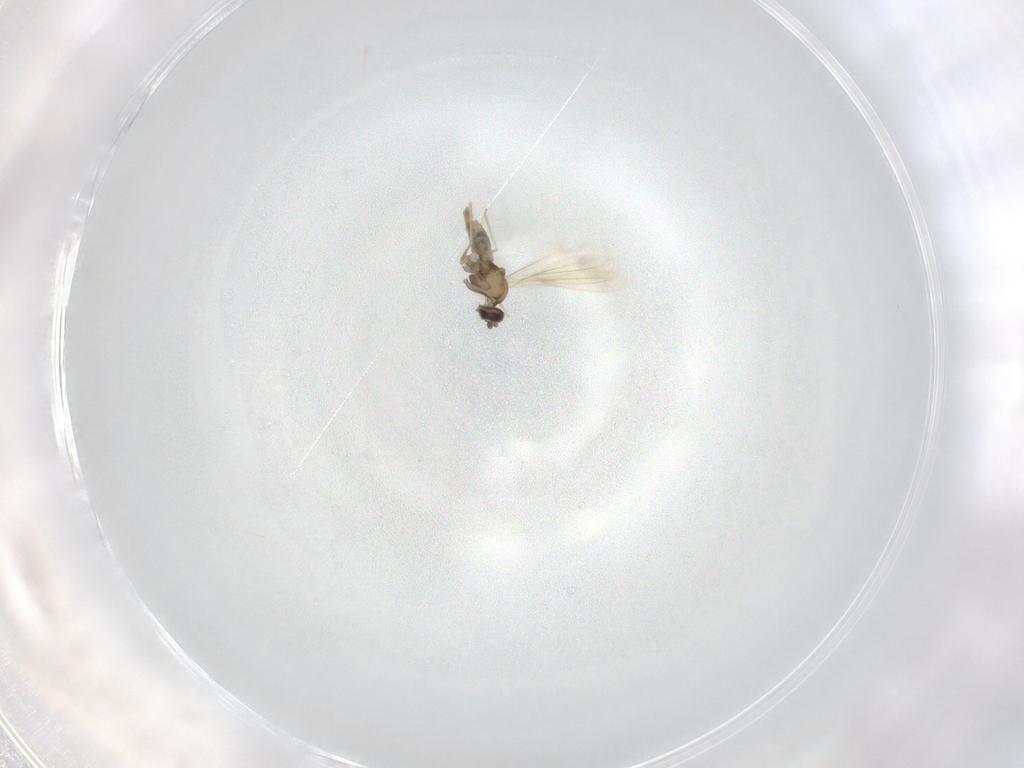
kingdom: Animalia
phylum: Arthropoda
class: Insecta
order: Diptera
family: Cecidomyiidae
